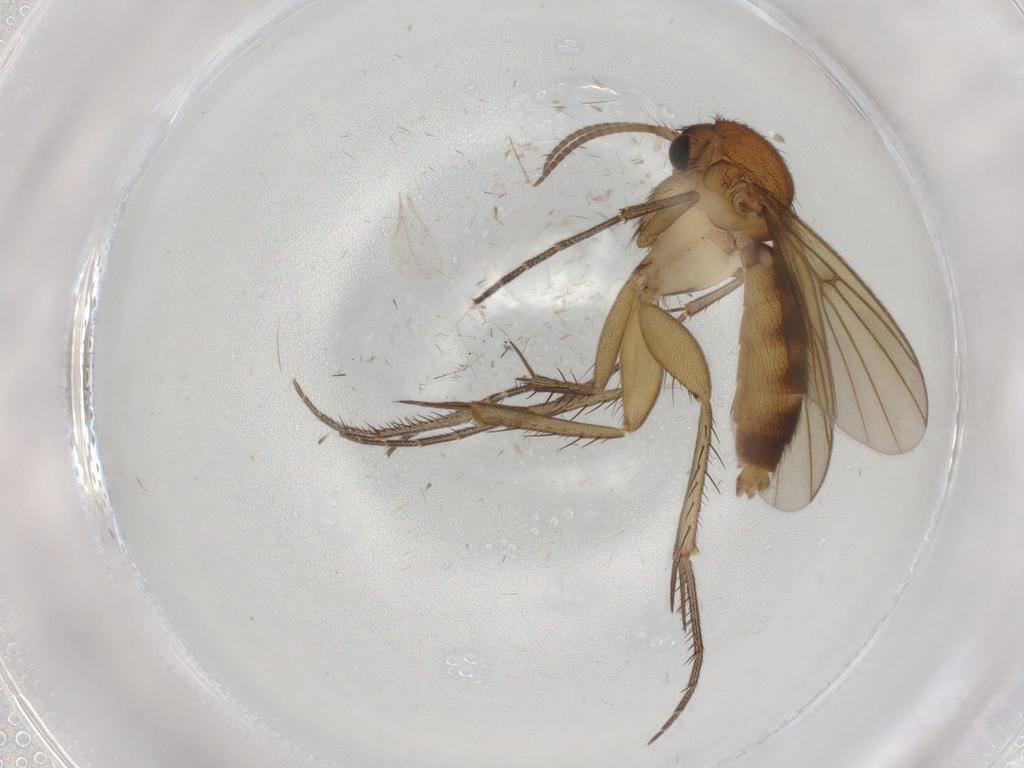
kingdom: Animalia
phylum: Arthropoda
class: Insecta
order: Diptera
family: Mycetophilidae
